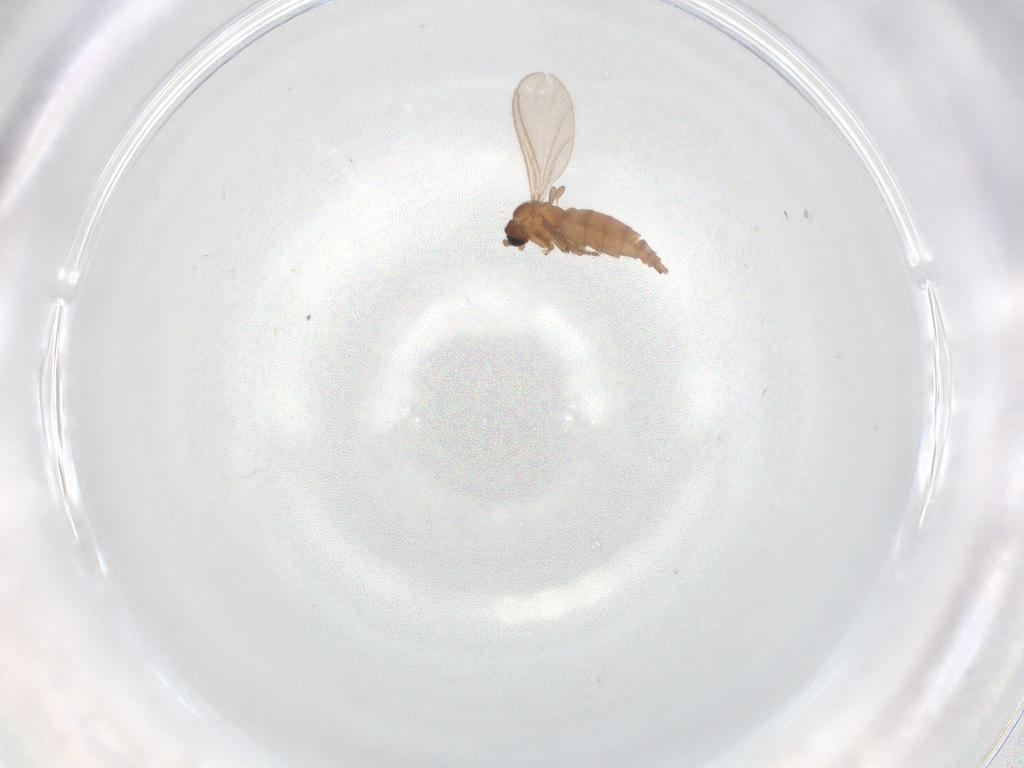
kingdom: Animalia
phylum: Arthropoda
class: Insecta
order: Diptera
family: Sciaridae
